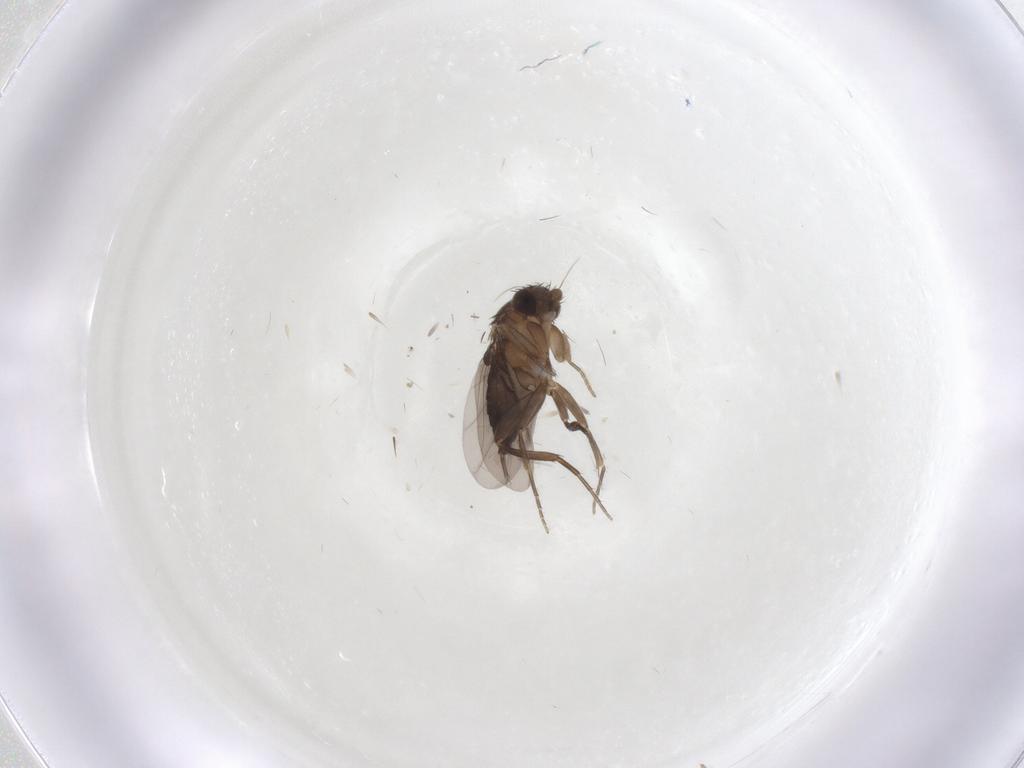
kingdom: Animalia
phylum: Arthropoda
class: Insecta
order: Diptera
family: Phoridae
